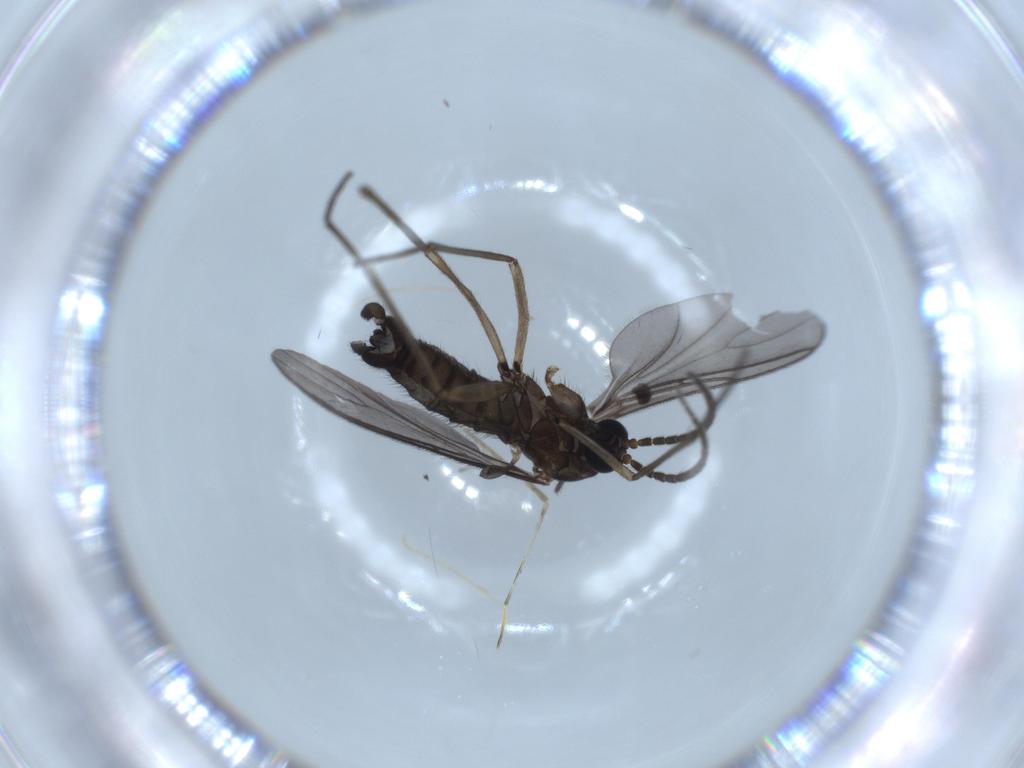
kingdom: Animalia
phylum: Arthropoda
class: Insecta
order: Diptera
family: Sciaridae
